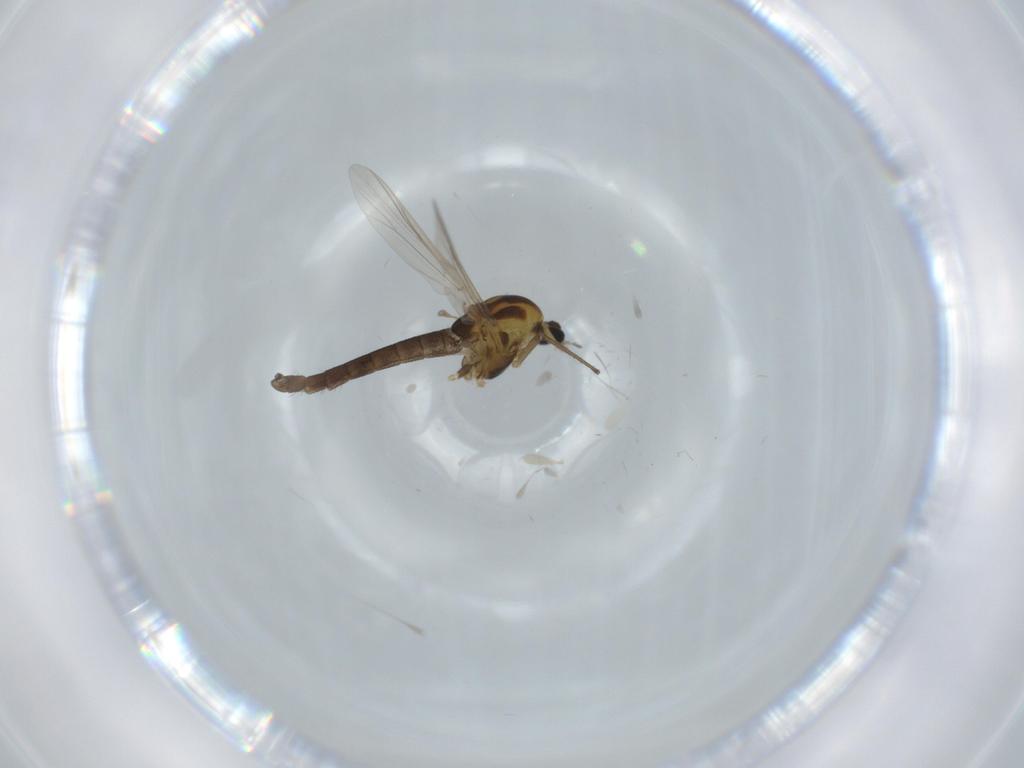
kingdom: Animalia
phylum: Arthropoda
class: Insecta
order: Diptera
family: Chironomidae
